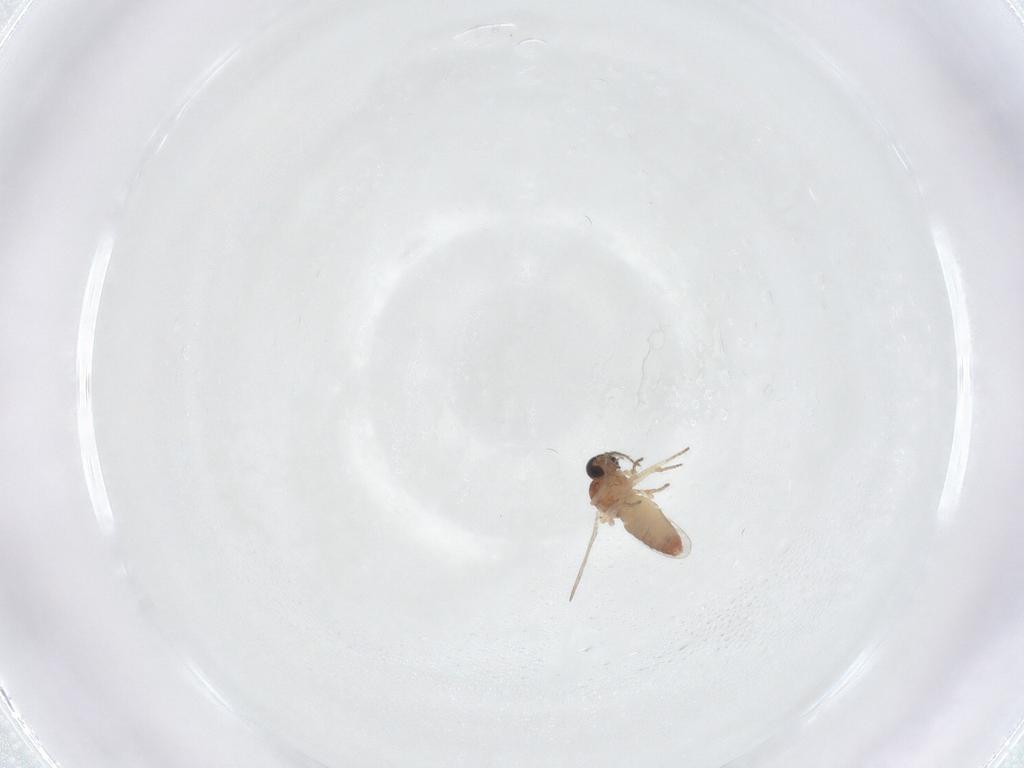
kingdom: Animalia
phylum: Arthropoda
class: Insecta
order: Diptera
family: Ceratopogonidae
